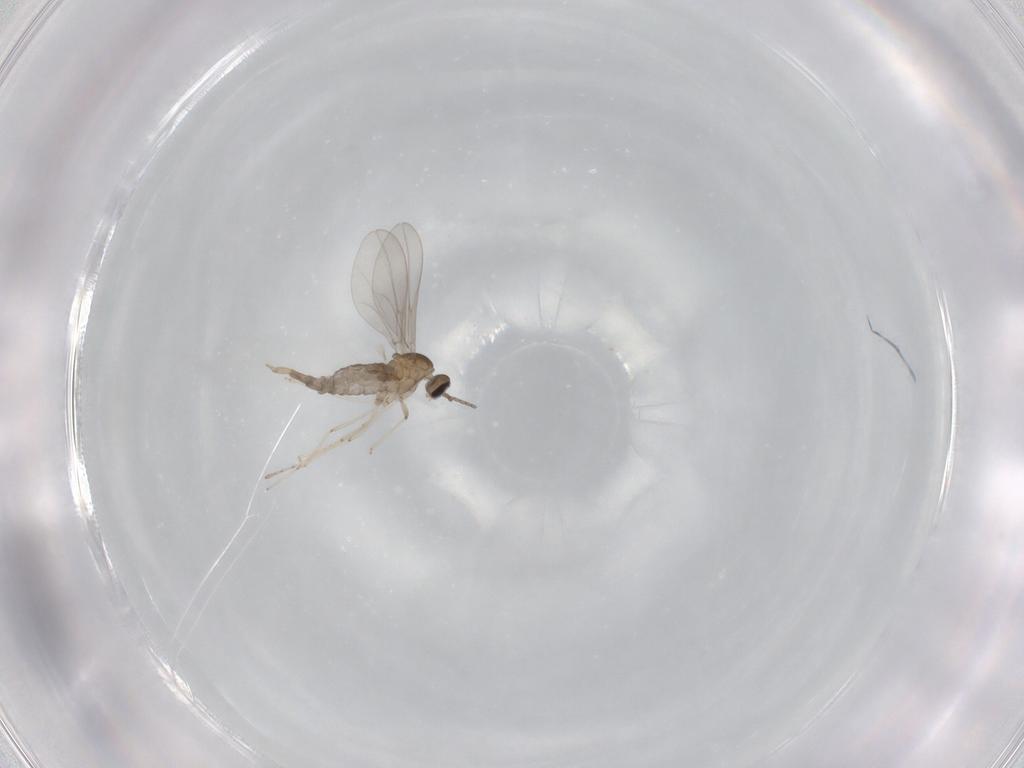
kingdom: Animalia
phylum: Arthropoda
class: Insecta
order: Diptera
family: Cecidomyiidae
